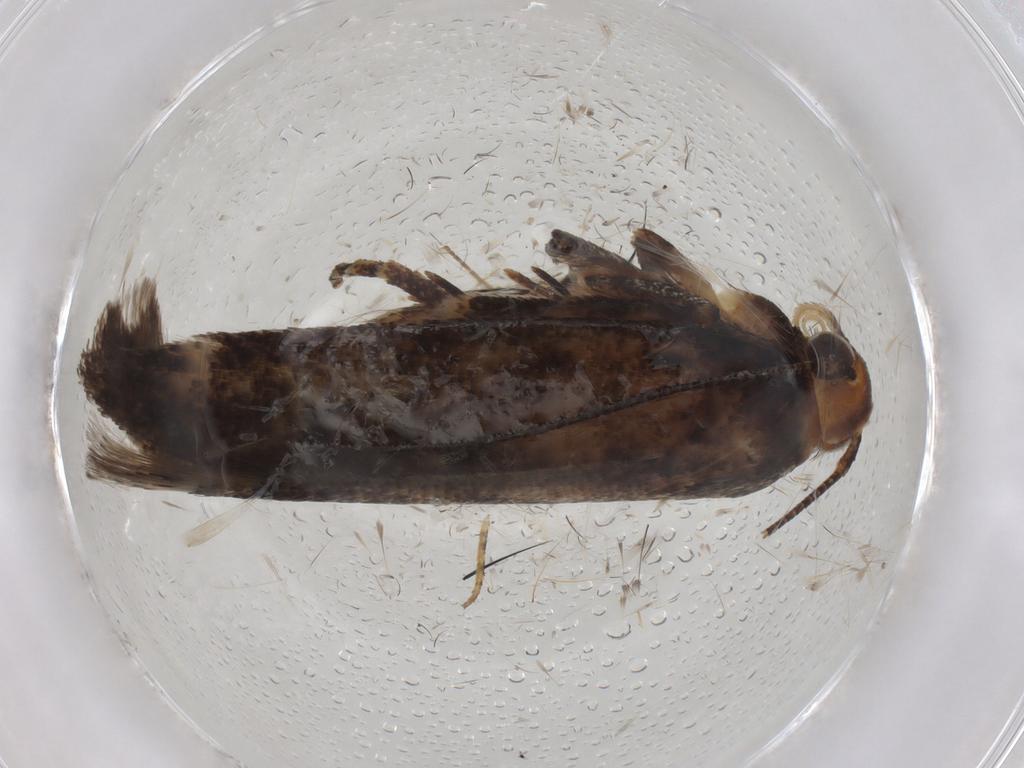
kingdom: Animalia
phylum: Arthropoda
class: Insecta
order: Lepidoptera
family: Gelechiidae
